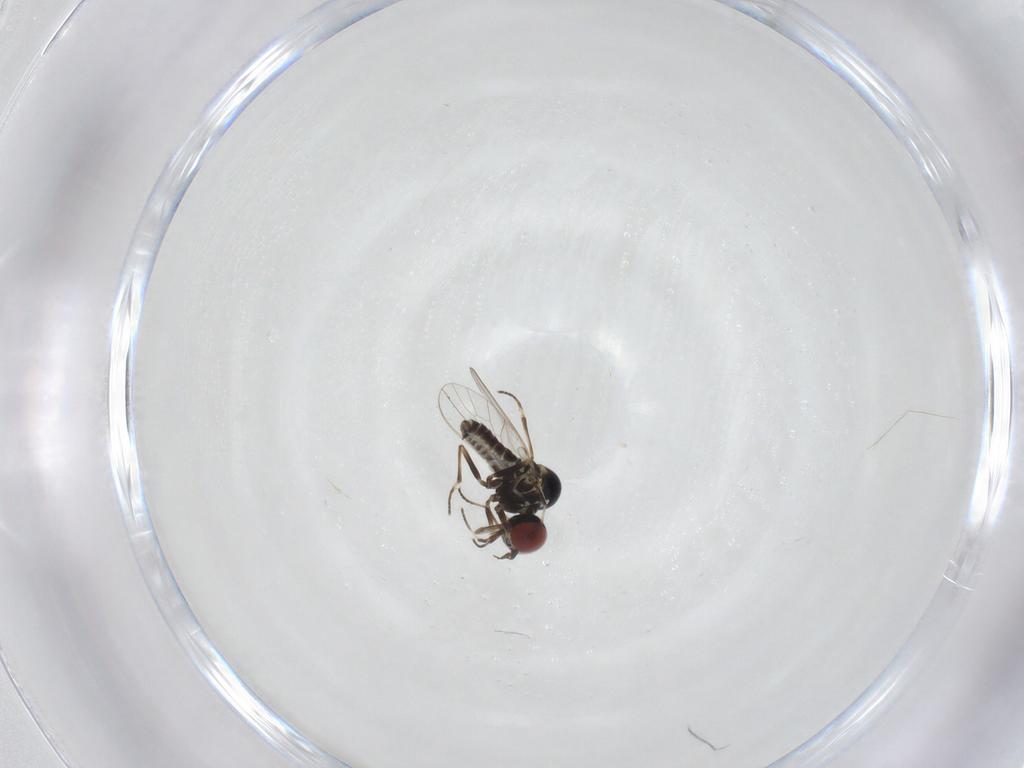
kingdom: Animalia
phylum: Arthropoda
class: Insecta
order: Diptera
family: Mythicomyiidae
